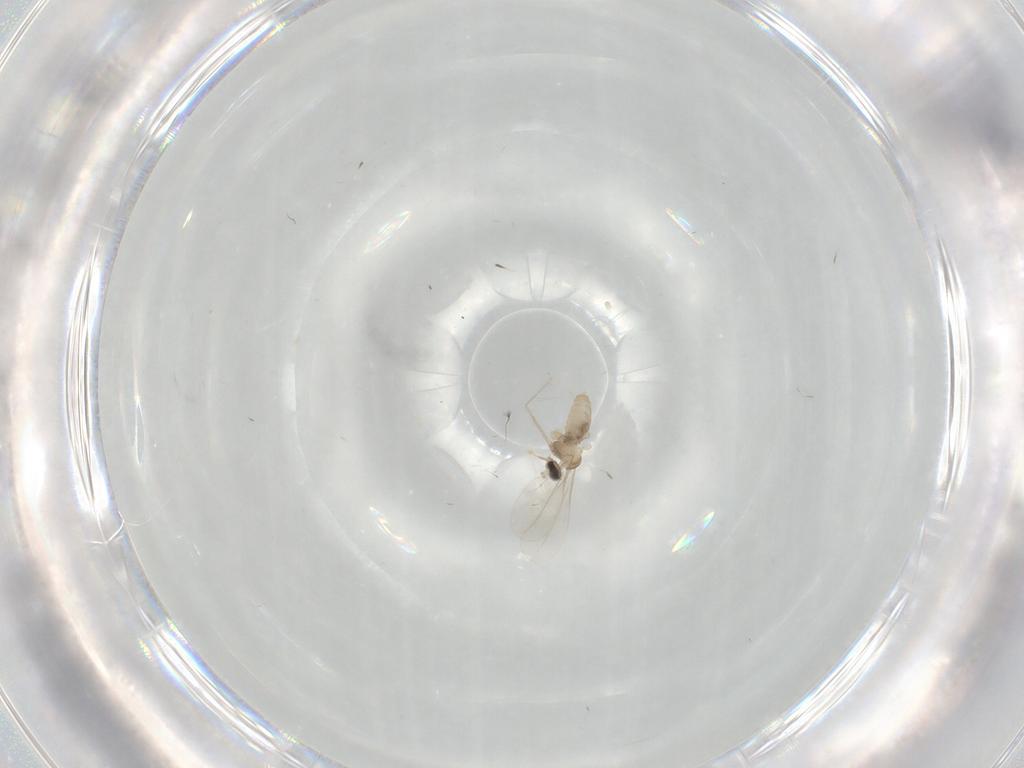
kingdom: Animalia
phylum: Arthropoda
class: Insecta
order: Diptera
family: Cecidomyiidae
